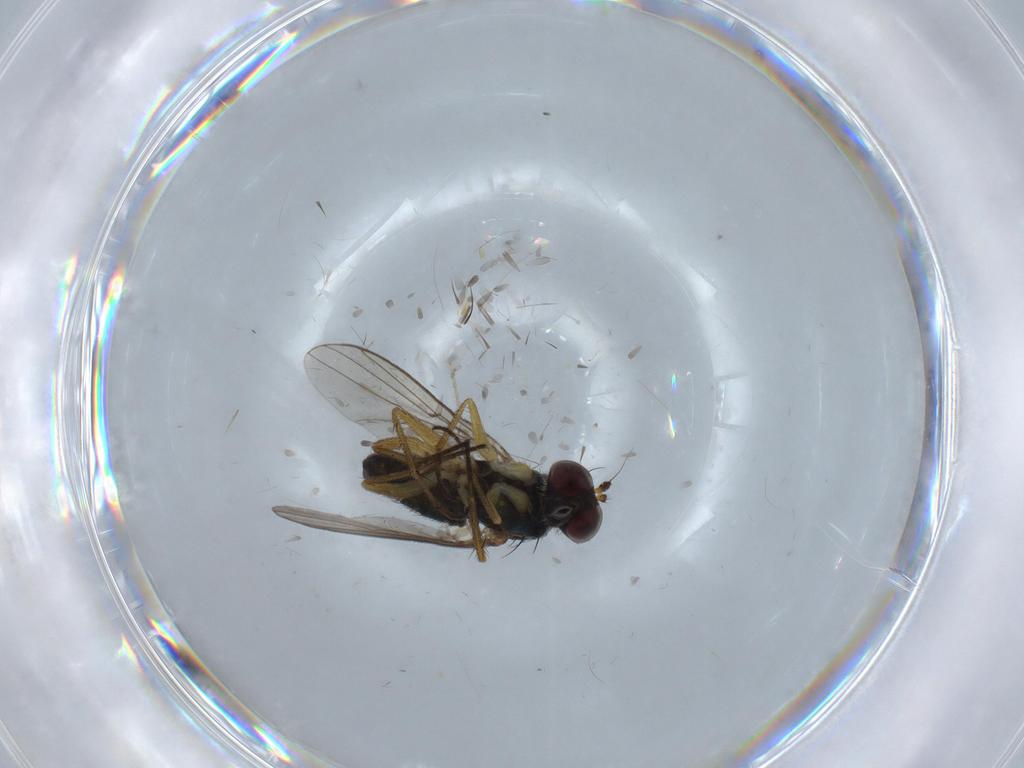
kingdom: Animalia
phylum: Arthropoda
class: Insecta
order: Diptera
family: Dolichopodidae
